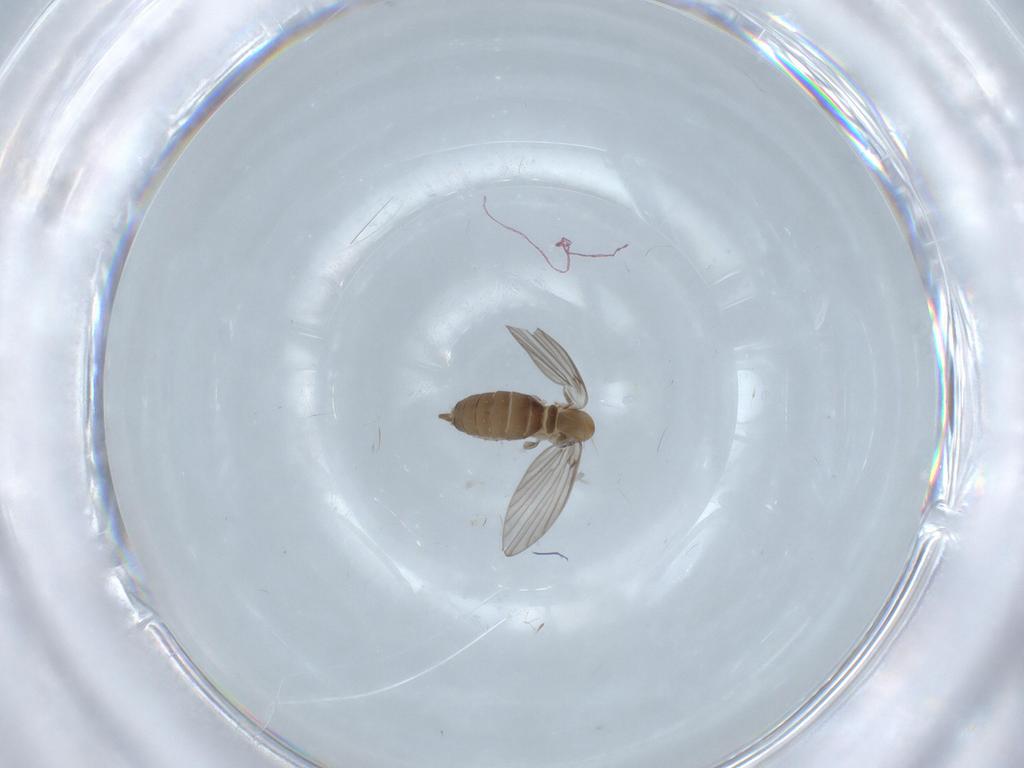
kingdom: Animalia
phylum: Arthropoda
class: Insecta
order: Diptera
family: Psychodidae
